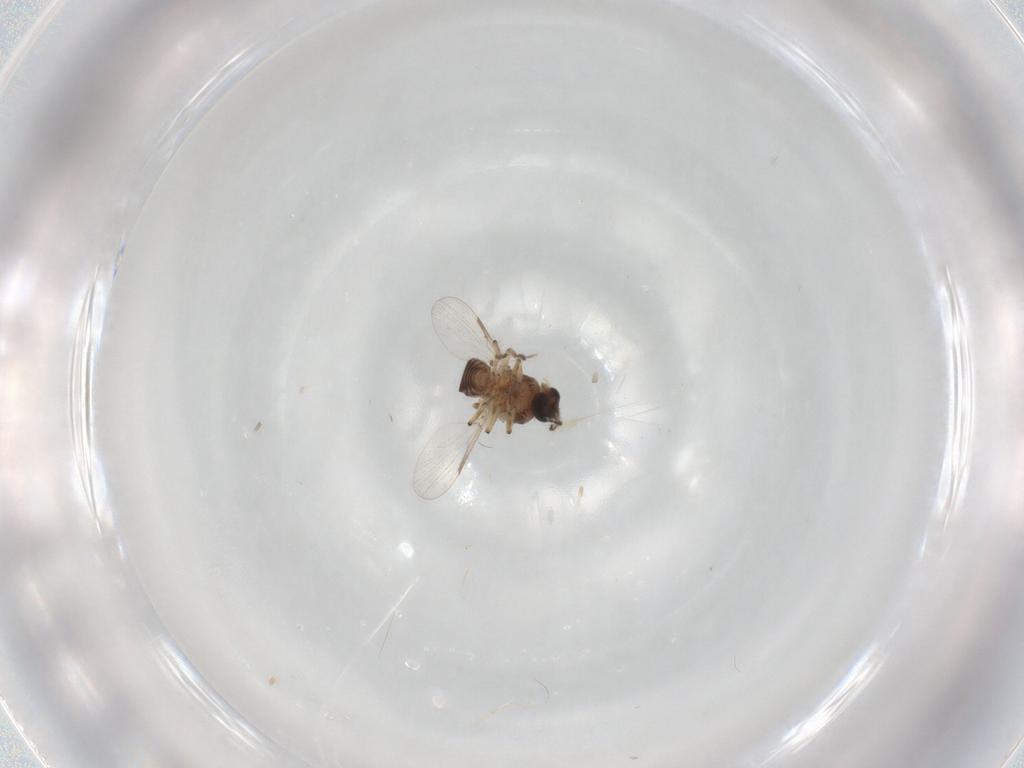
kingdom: Animalia
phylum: Arthropoda
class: Insecta
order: Diptera
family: Ceratopogonidae
